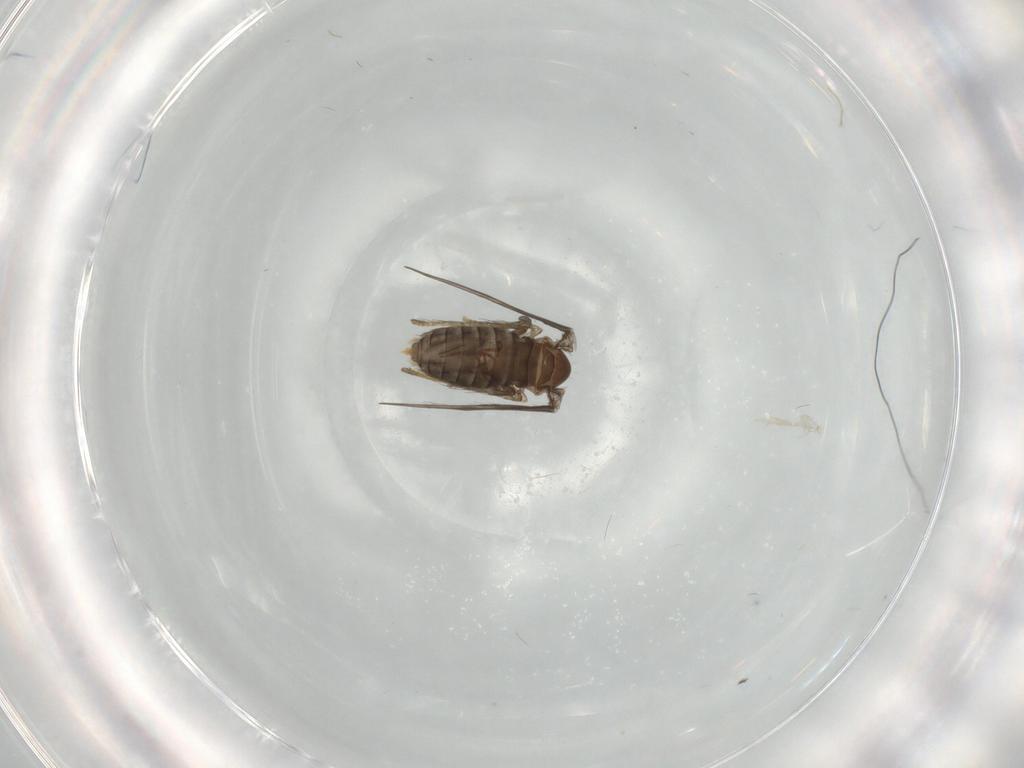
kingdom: Animalia
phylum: Arthropoda
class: Insecta
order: Diptera
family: Psychodidae
